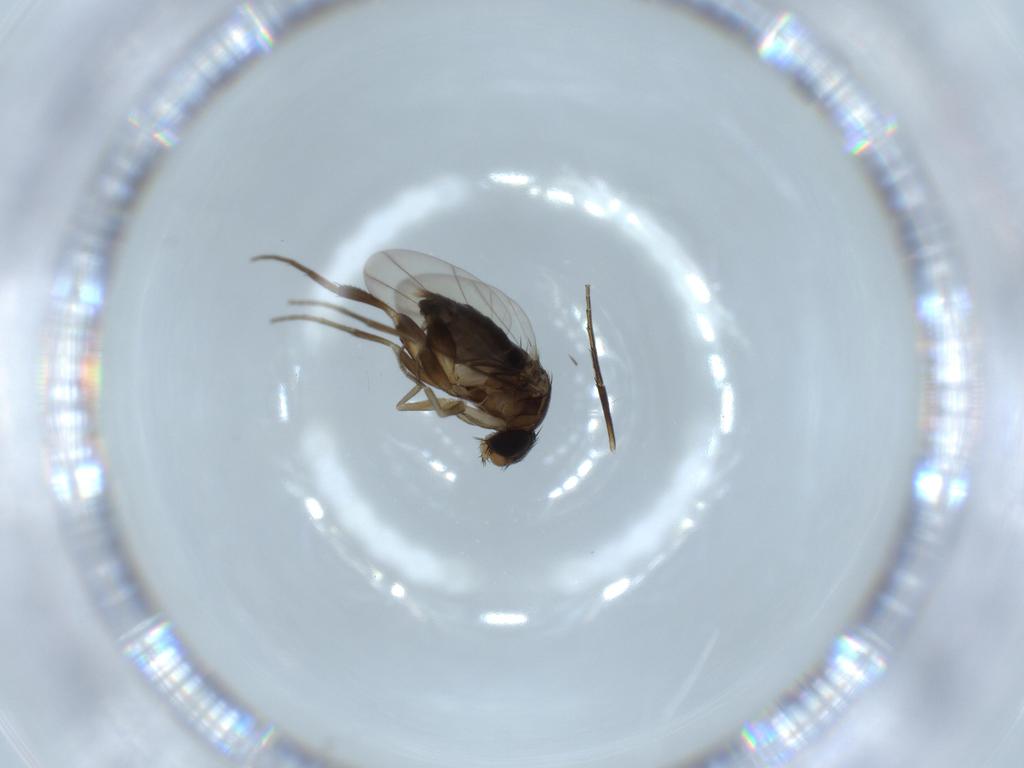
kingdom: Animalia
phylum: Arthropoda
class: Insecta
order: Diptera
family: Phoridae
